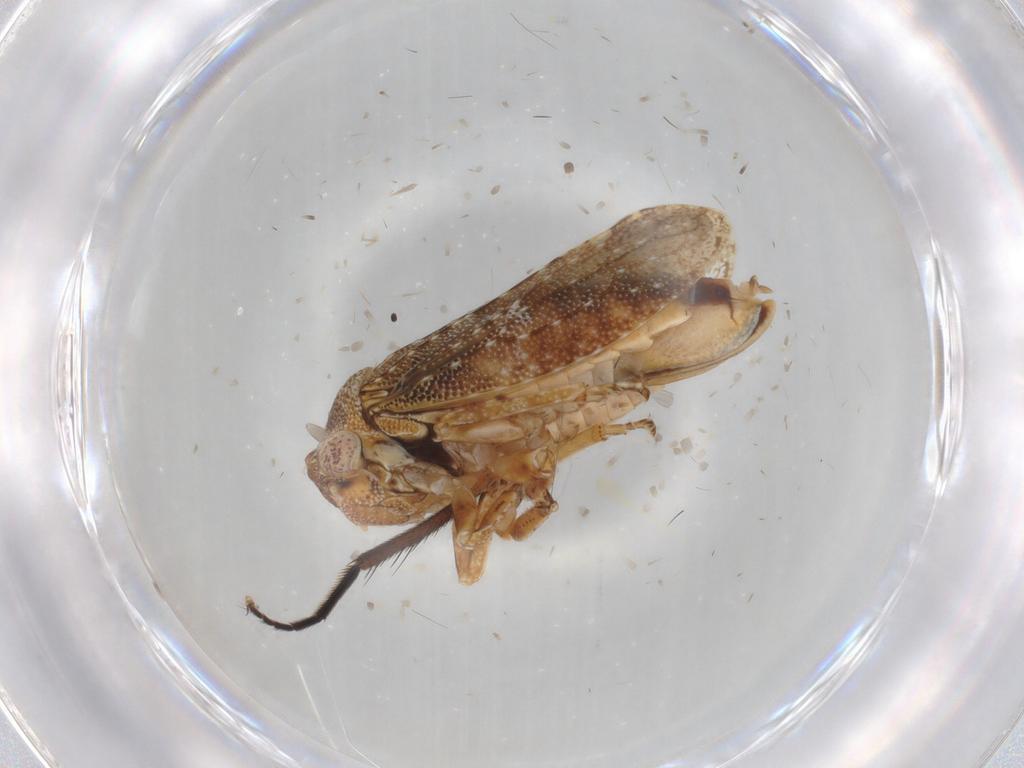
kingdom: Animalia
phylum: Arthropoda
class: Insecta
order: Hemiptera
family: Cicadellidae
